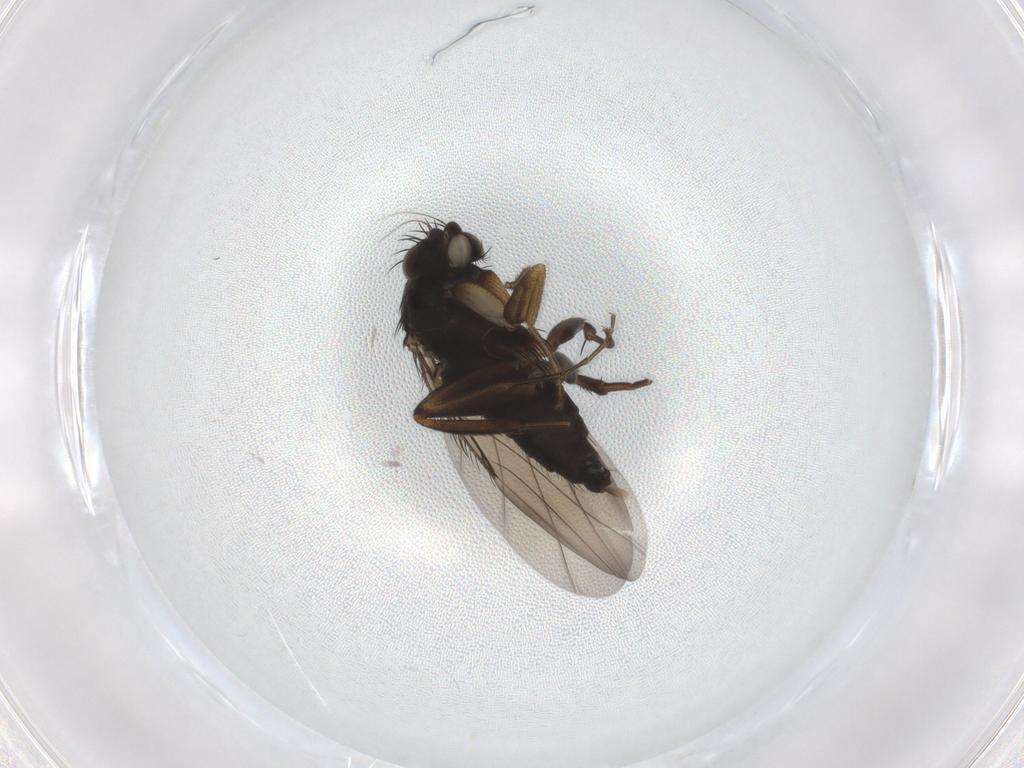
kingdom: Animalia
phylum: Arthropoda
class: Insecta
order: Diptera
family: Phoridae
